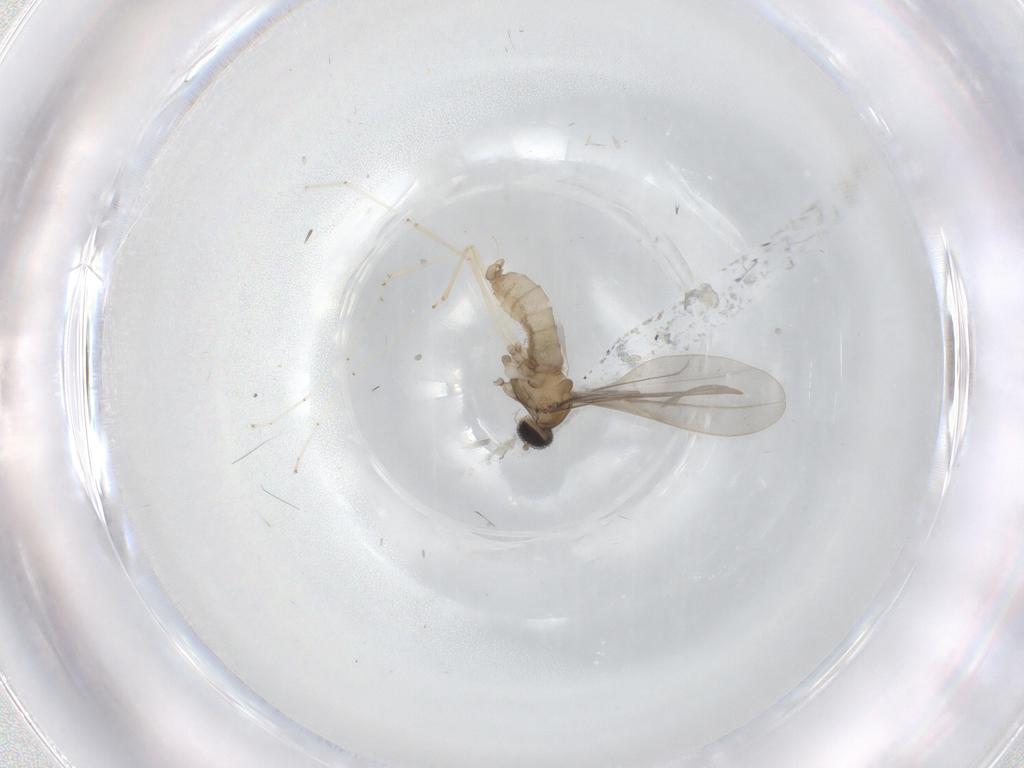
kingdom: Animalia
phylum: Arthropoda
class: Insecta
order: Diptera
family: Cecidomyiidae
